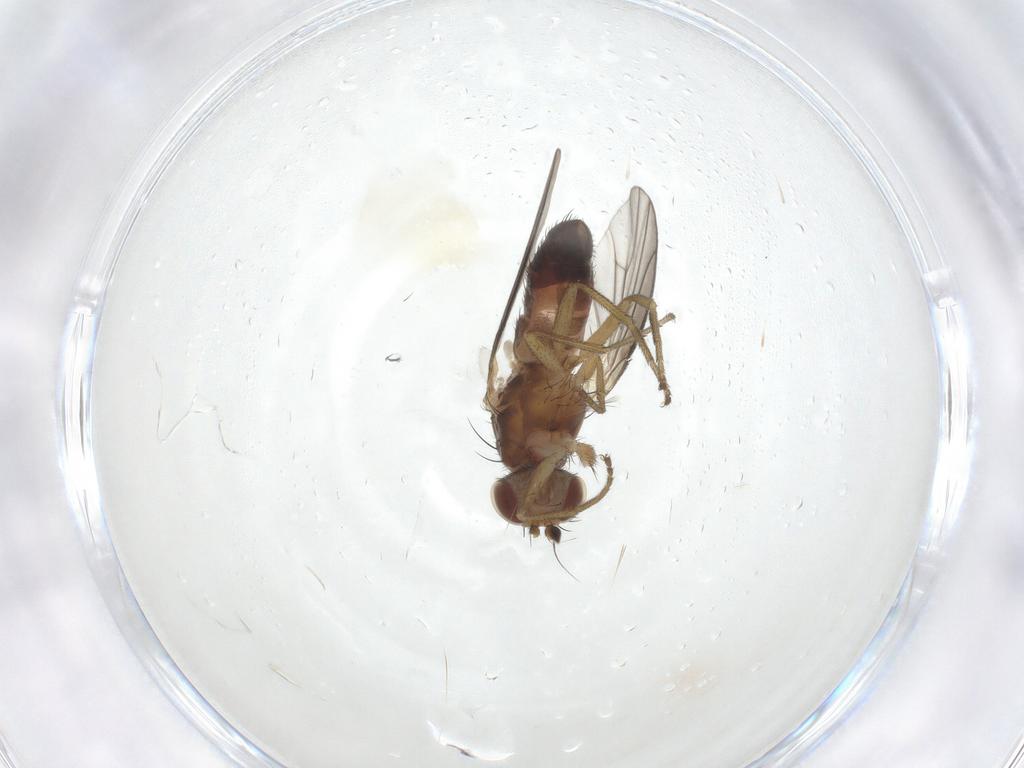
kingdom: Animalia
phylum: Arthropoda
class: Insecta
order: Diptera
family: Heleomyzidae
